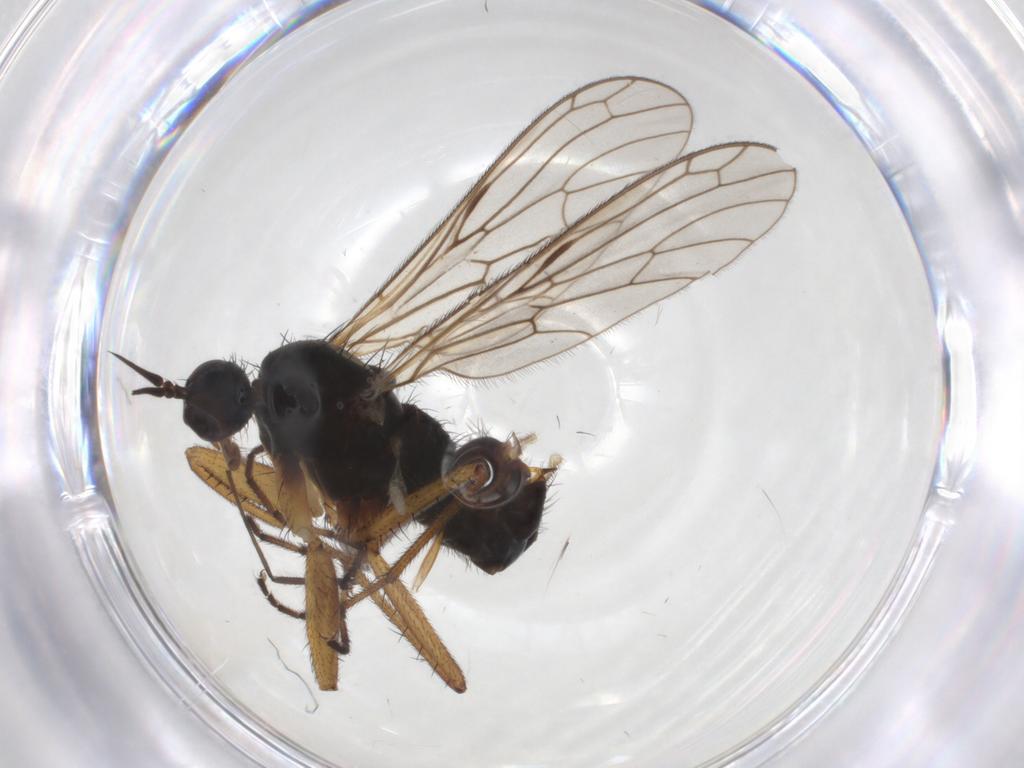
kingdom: Animalia
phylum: Arthropoda
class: Insecta
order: Diptera
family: Empididae
